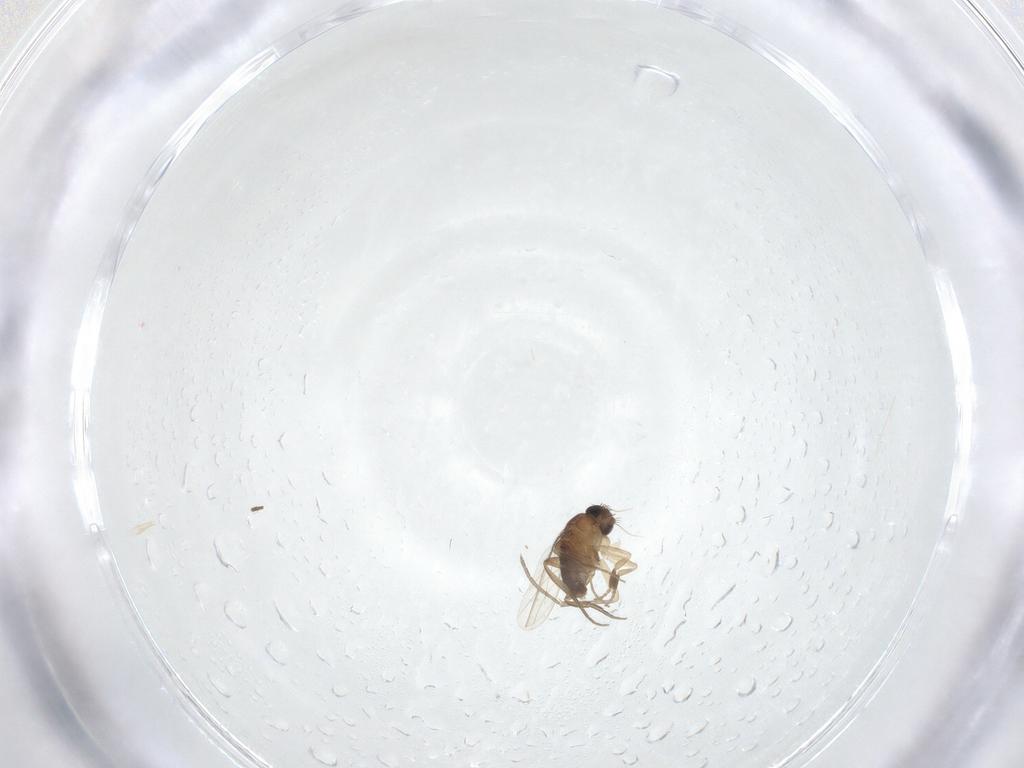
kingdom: Animalia
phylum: Arthropoda
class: Insecta
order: Diptera
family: Phoridae
